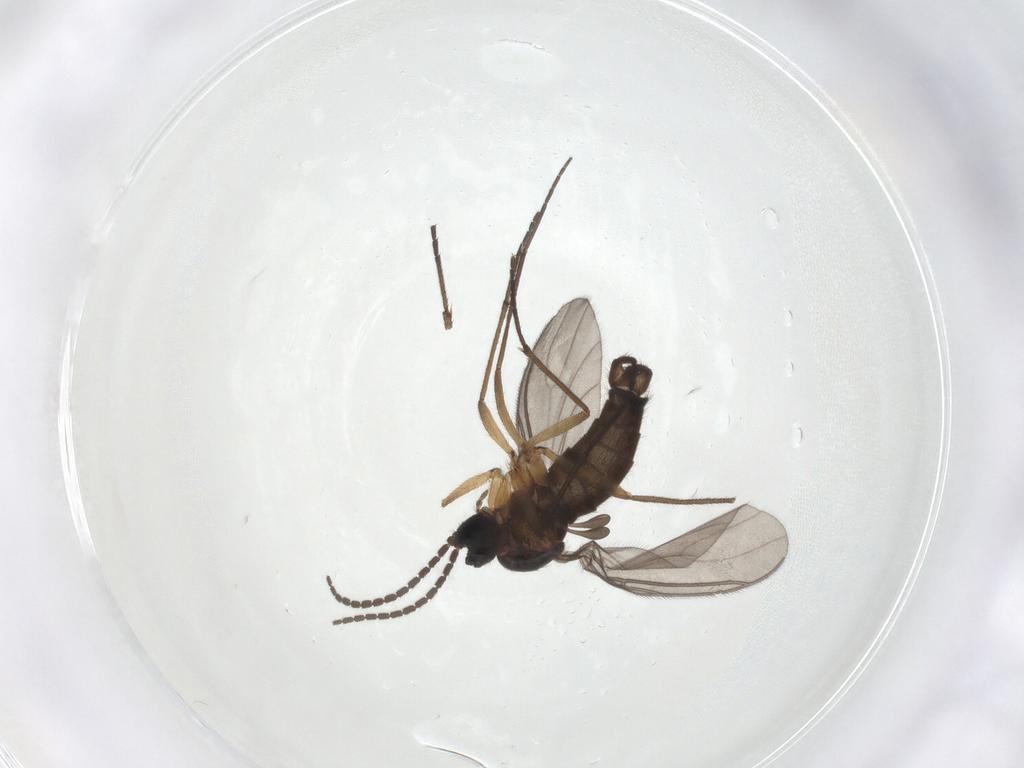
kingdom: Animalia
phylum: Arthropoda
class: Insecta
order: Diptera
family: Sciaridae
